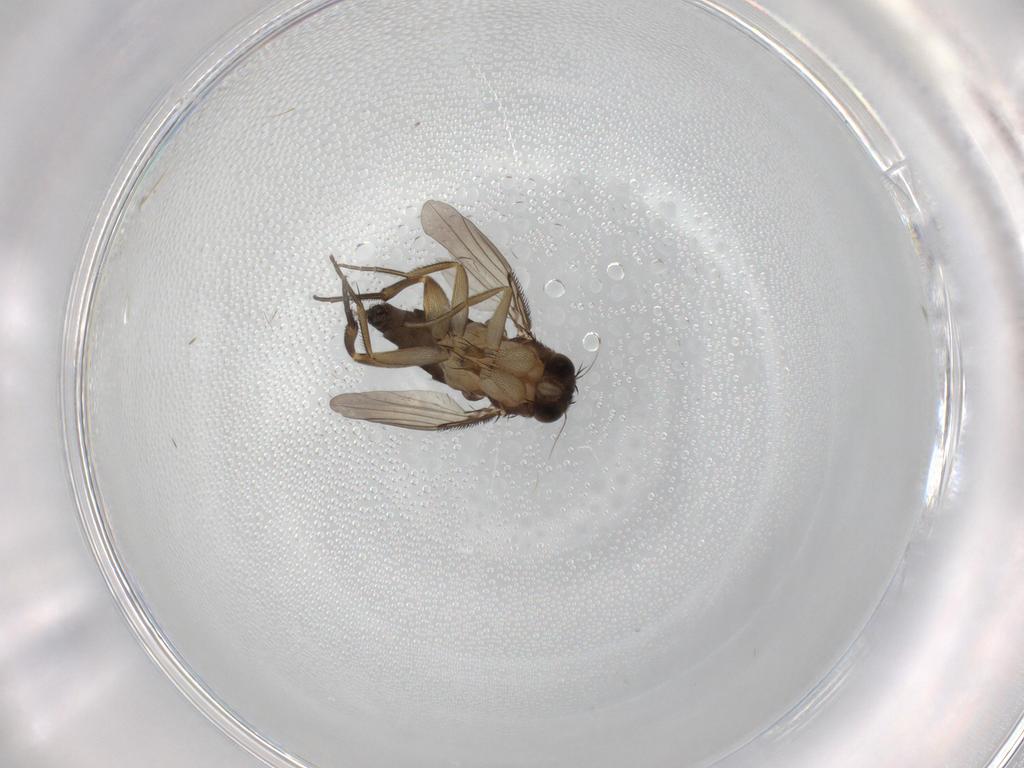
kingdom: Animalia
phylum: Arthropoda
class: Insecta
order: Diptera
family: Phoridae
